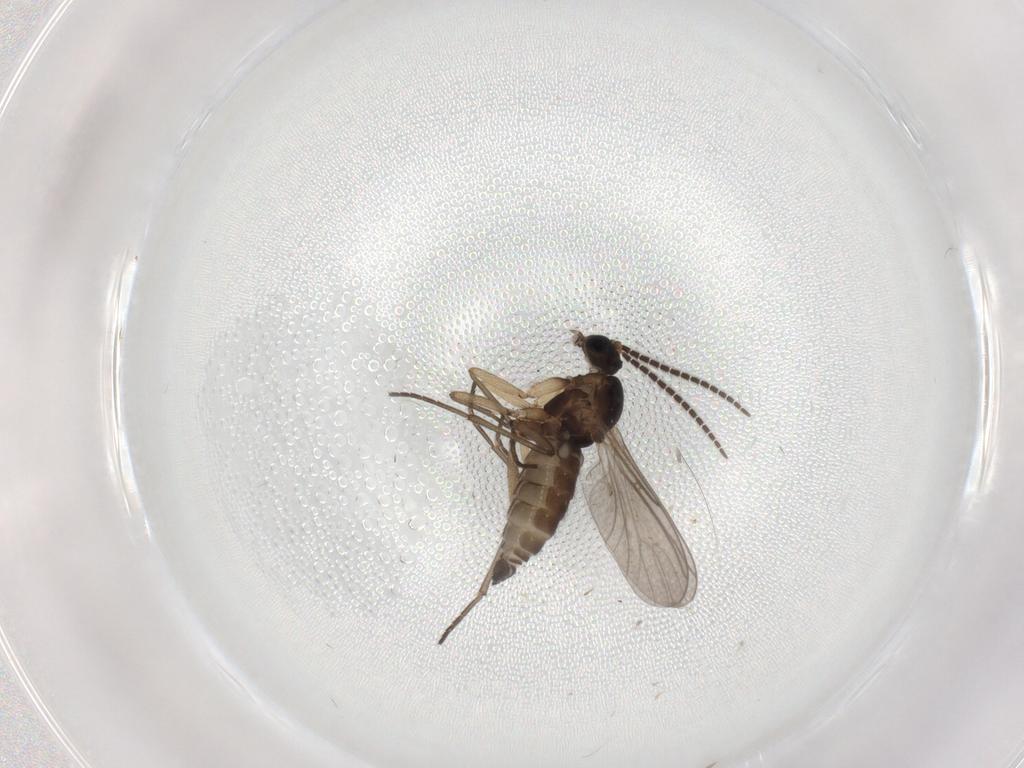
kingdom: Animalia
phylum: Arthropoda
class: Insecta
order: Diptera
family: Sciaridae
